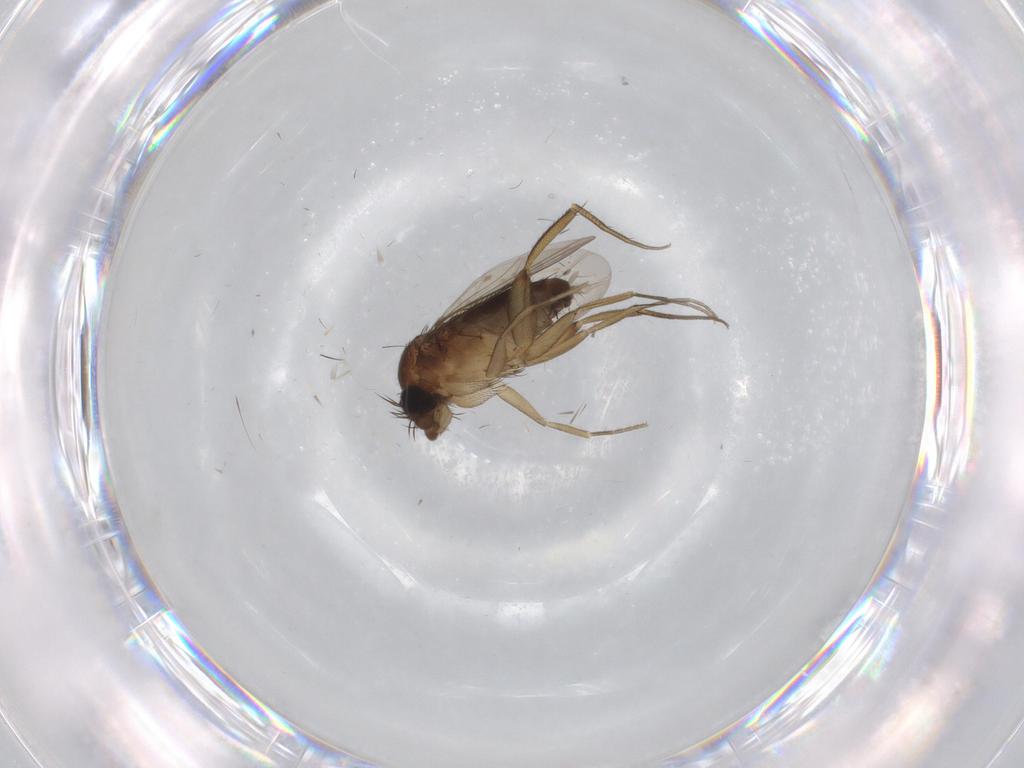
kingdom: Animalia
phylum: Arthropoda
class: Insecta
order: Diptera
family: Phoridae
